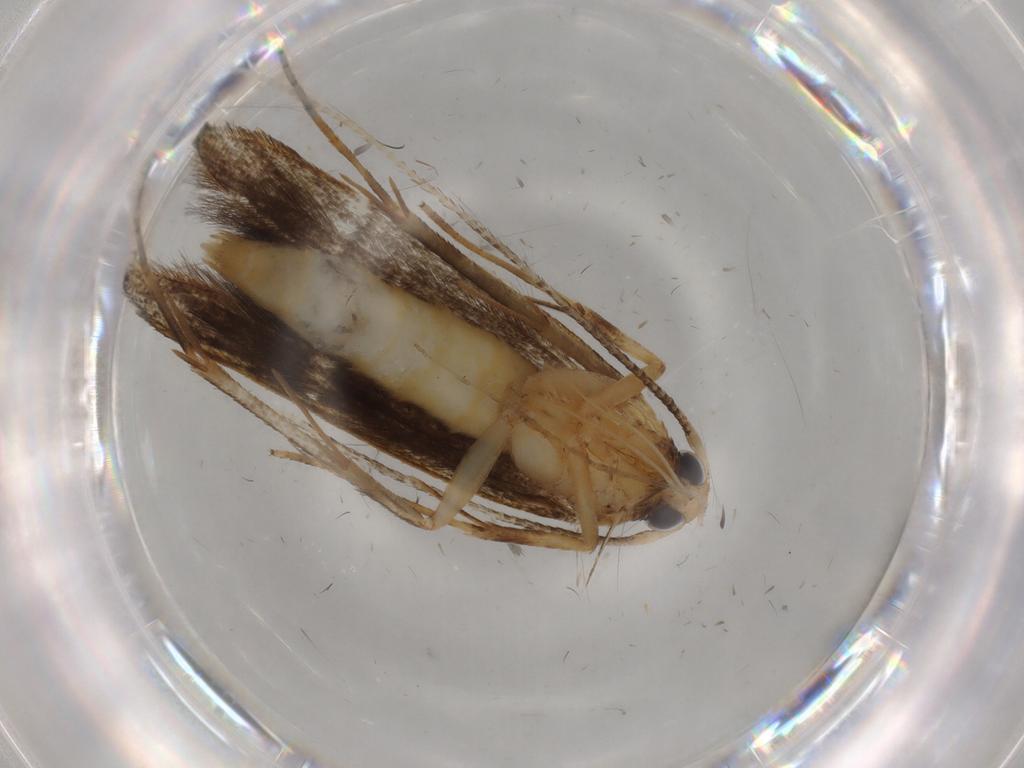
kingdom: Animalia
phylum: Arthropoda
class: Insecta
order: Lepidoptera
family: Pterolonchidae
